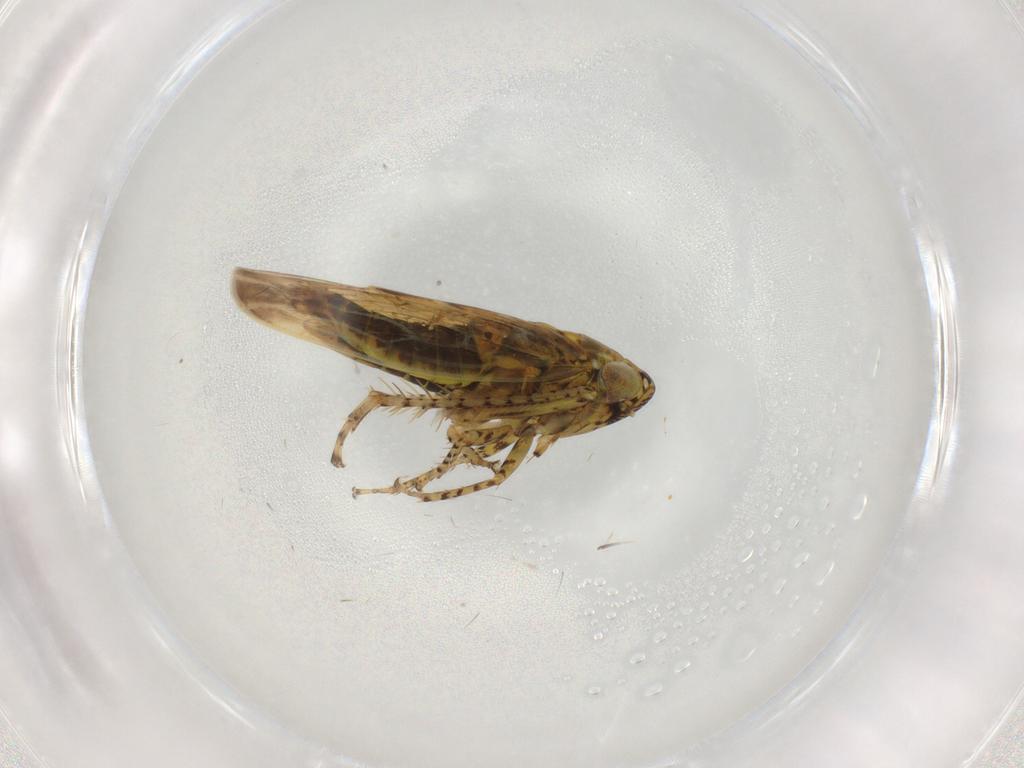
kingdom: Animalia
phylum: Arthropoda
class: Insecta
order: Hemiptera
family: Cicadellidae
